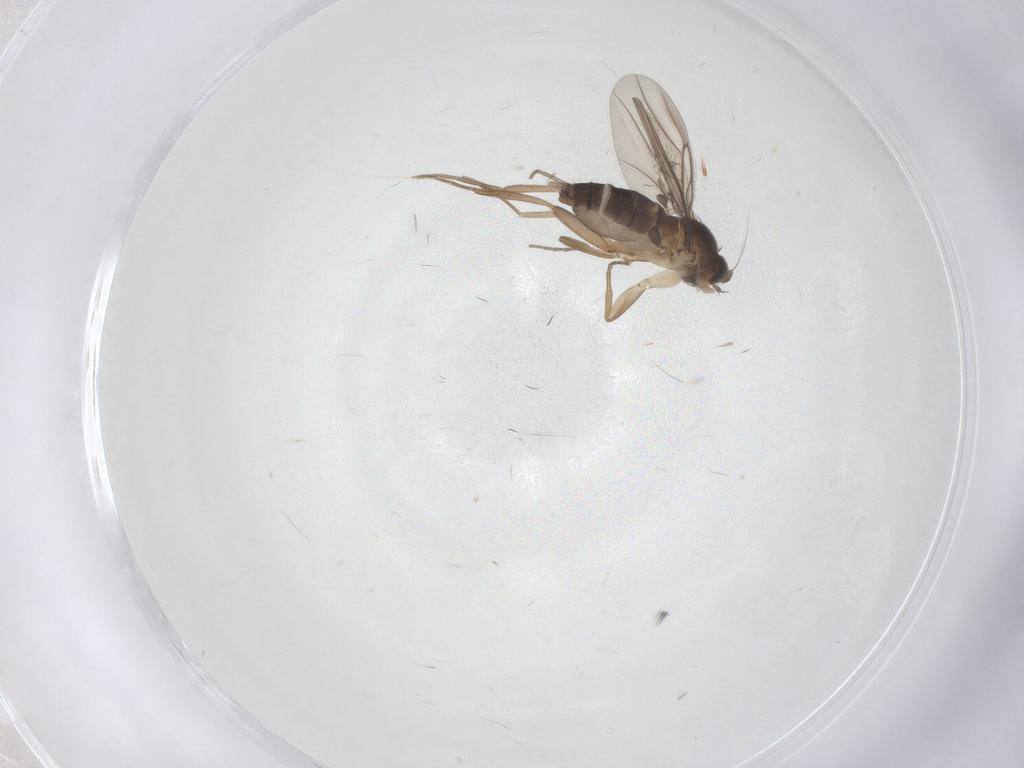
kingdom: Animalia
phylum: Arthropoda
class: Insecta
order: Diptera
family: Phoridae
